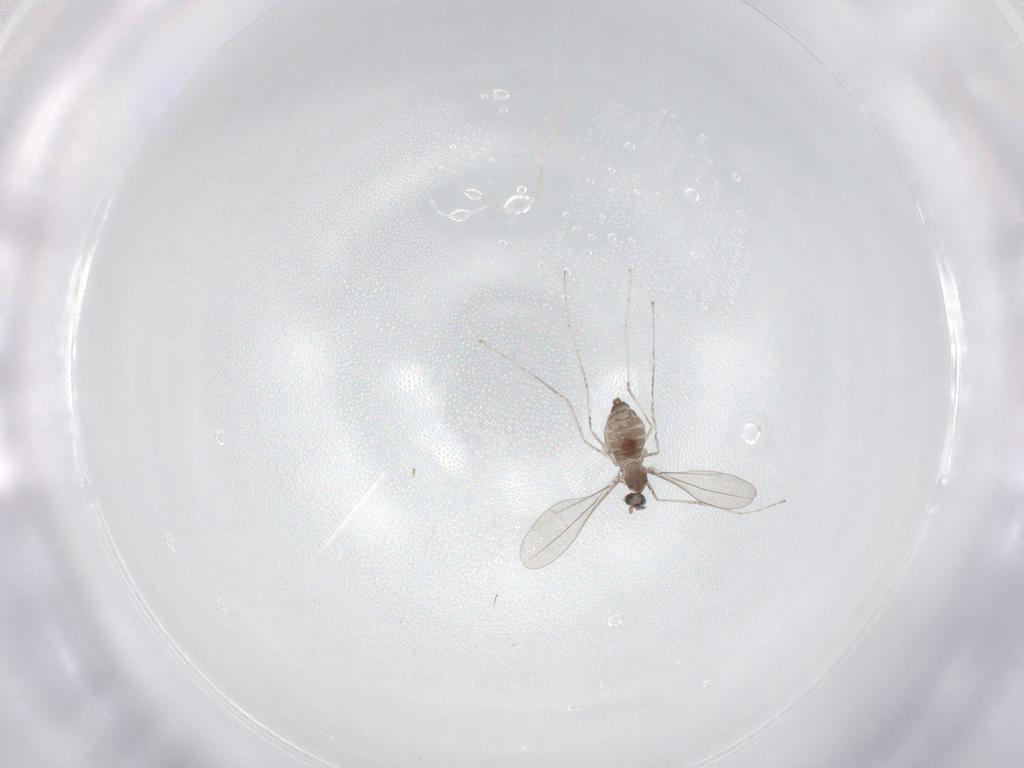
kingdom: Animalia
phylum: Arthropoda
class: Insecta
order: Diptera
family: Cecidomyiidae
